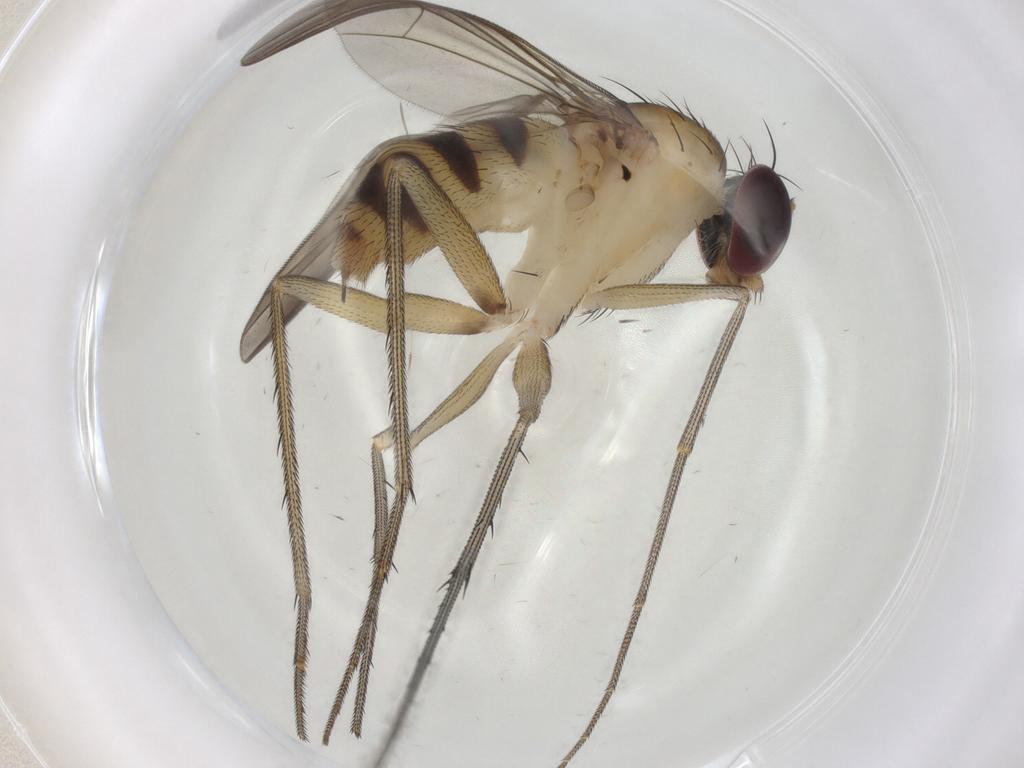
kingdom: Animalia
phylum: Arthropoda
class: Insecta
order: Diptera
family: Dolichopodidae
